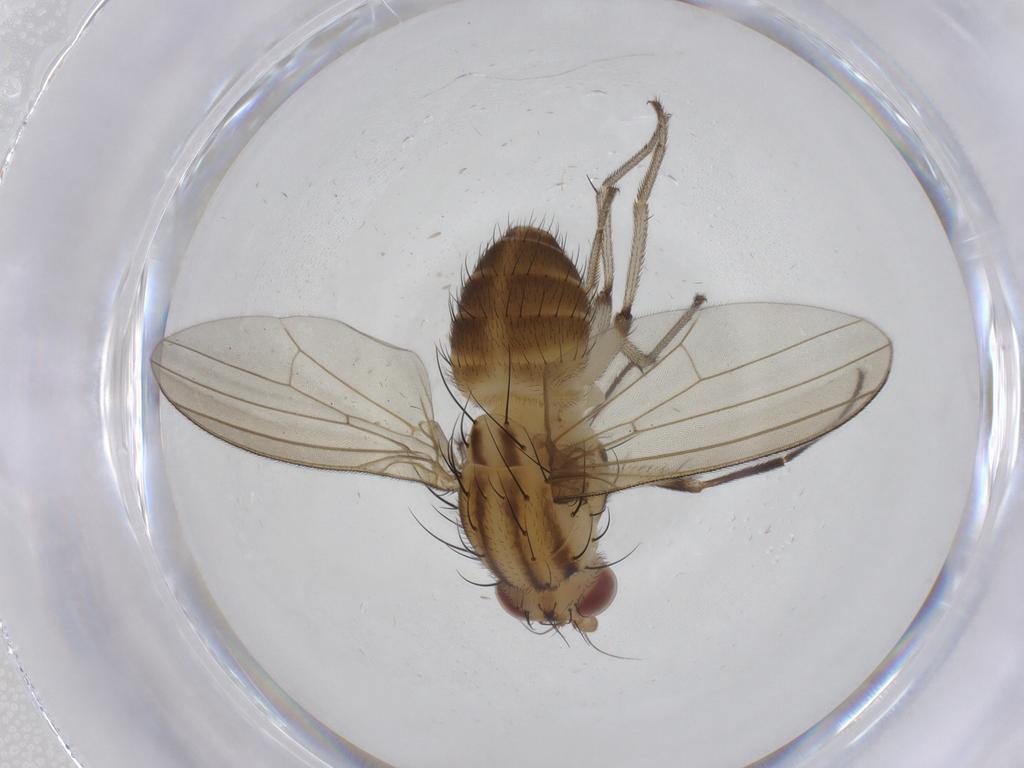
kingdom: Animalia
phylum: Arthropoda
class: Insecta
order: Diptera
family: Lauxaniidae
